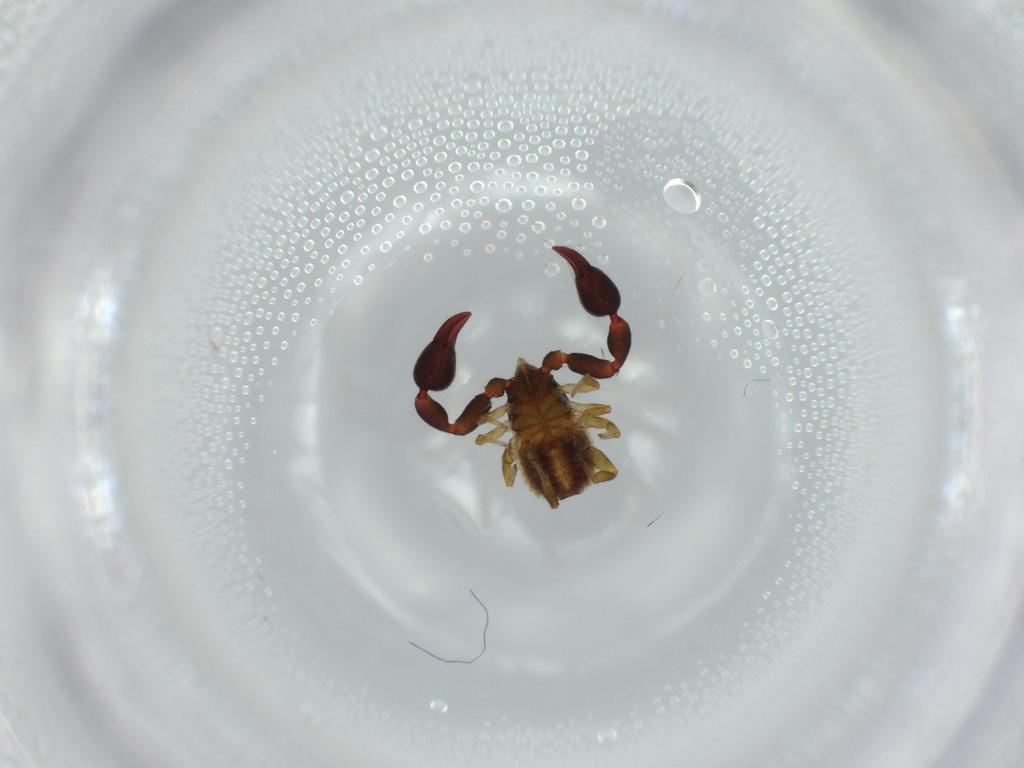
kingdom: Animalia
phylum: Arthropoda
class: Arachnida
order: Pseudoscorpiones
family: Chernetidae
